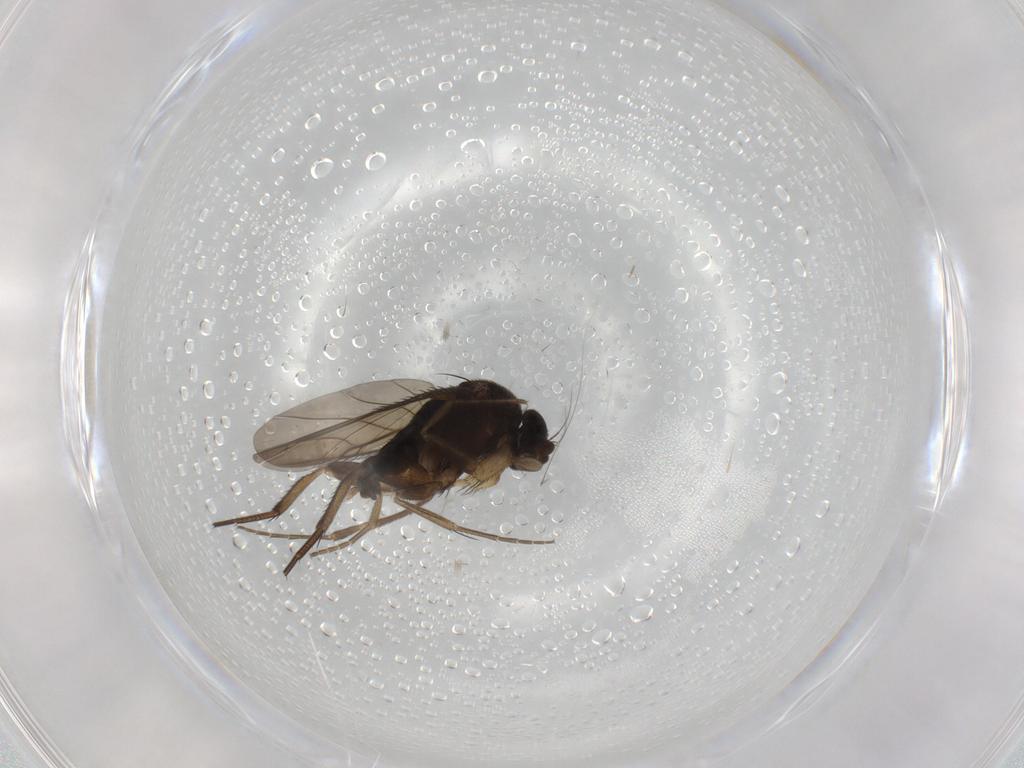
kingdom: Animalia
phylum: Arthropoda
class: Insecta
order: Diptera
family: Phoridae
